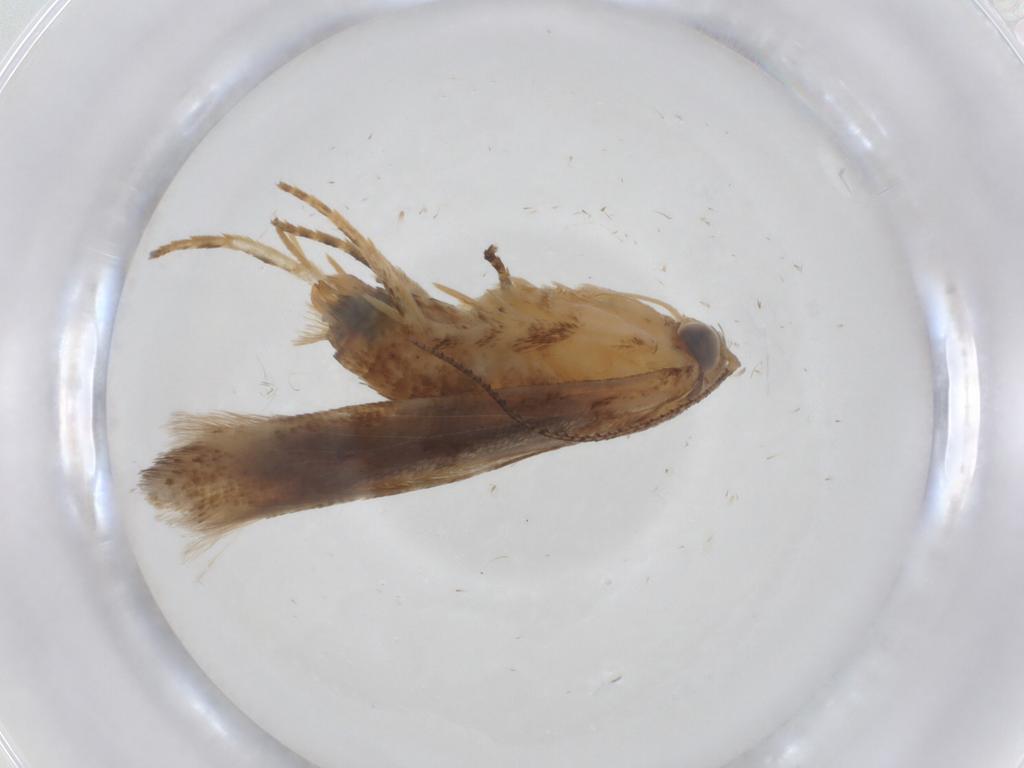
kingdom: Animalia
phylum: Arthropoda
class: Insecta
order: Lepidoptera
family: Gelechiidae
